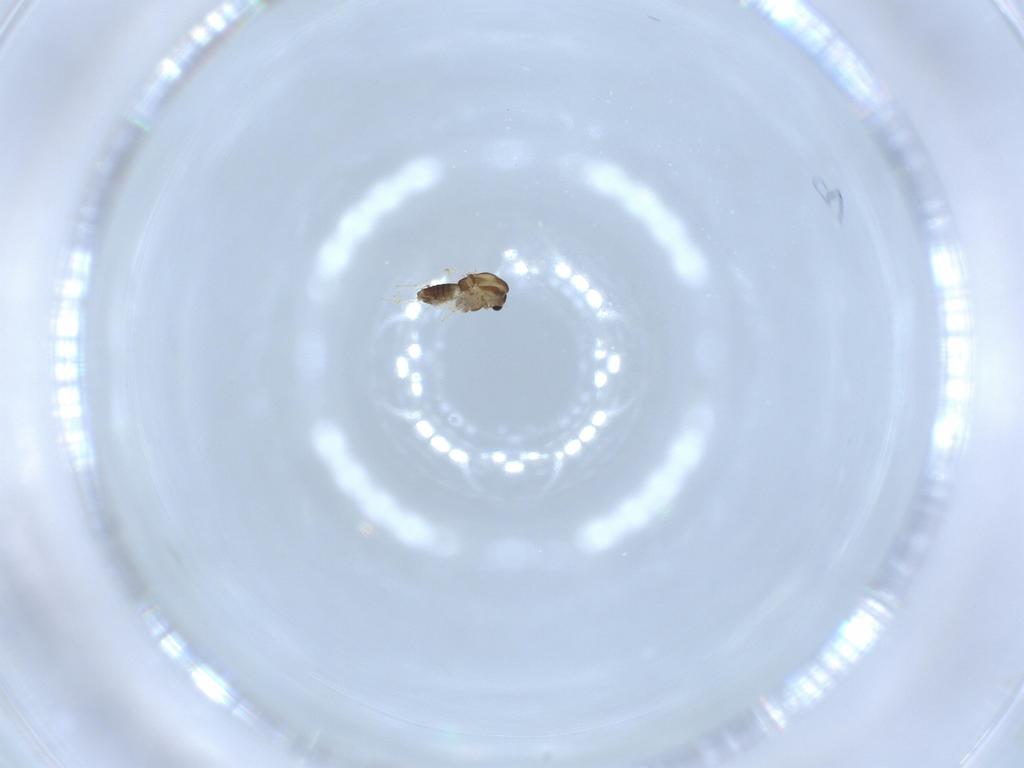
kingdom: Animalia
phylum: Arthropoda
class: Insecta
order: Diptera
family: Chironomidae
